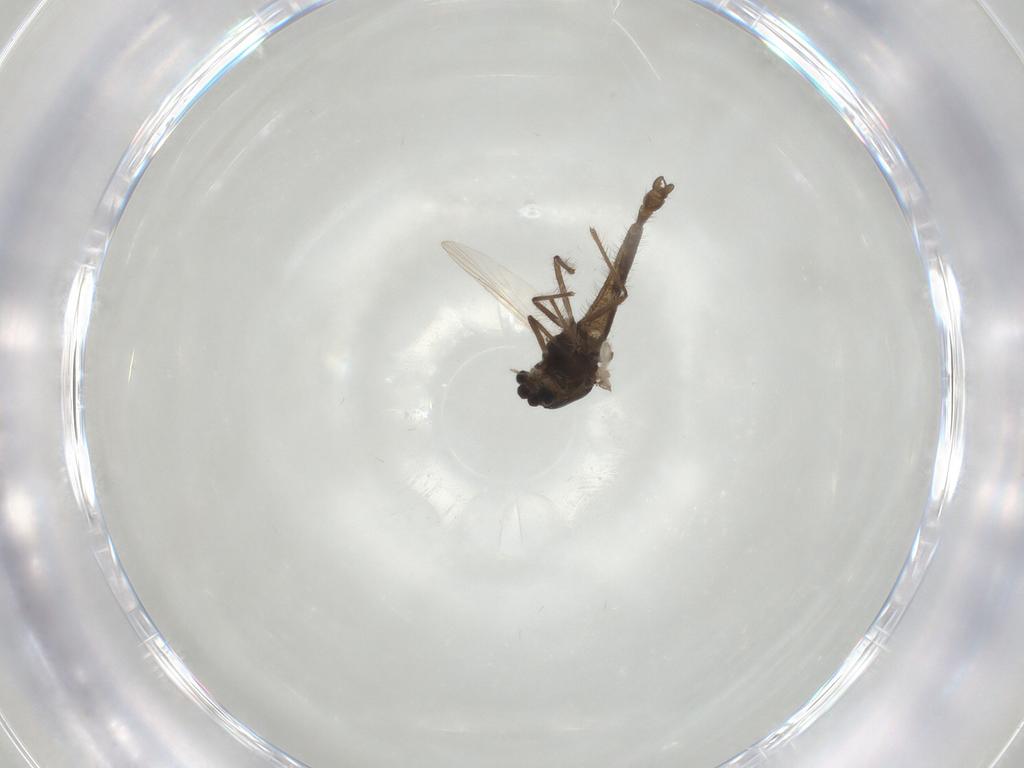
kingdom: Animalia
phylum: Arthropoda
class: Insecta
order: Diptera
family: Chironomidae
